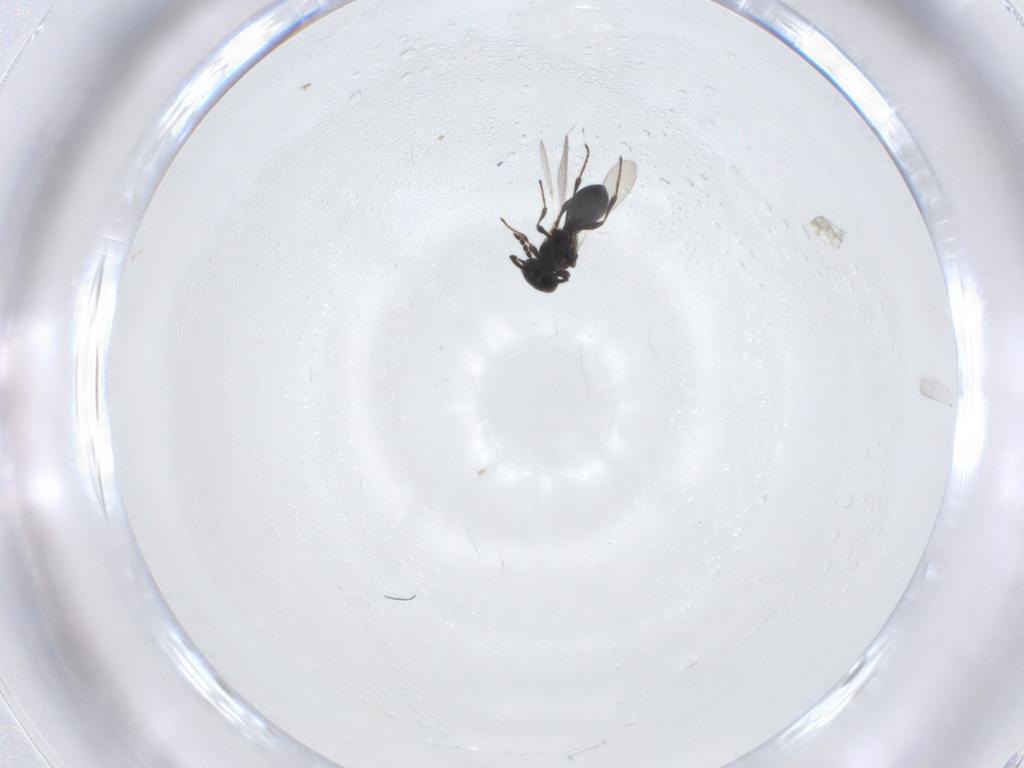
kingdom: Animalia
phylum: Arthropoda
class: Insecta
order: Hymenoptera
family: Platygastridae
